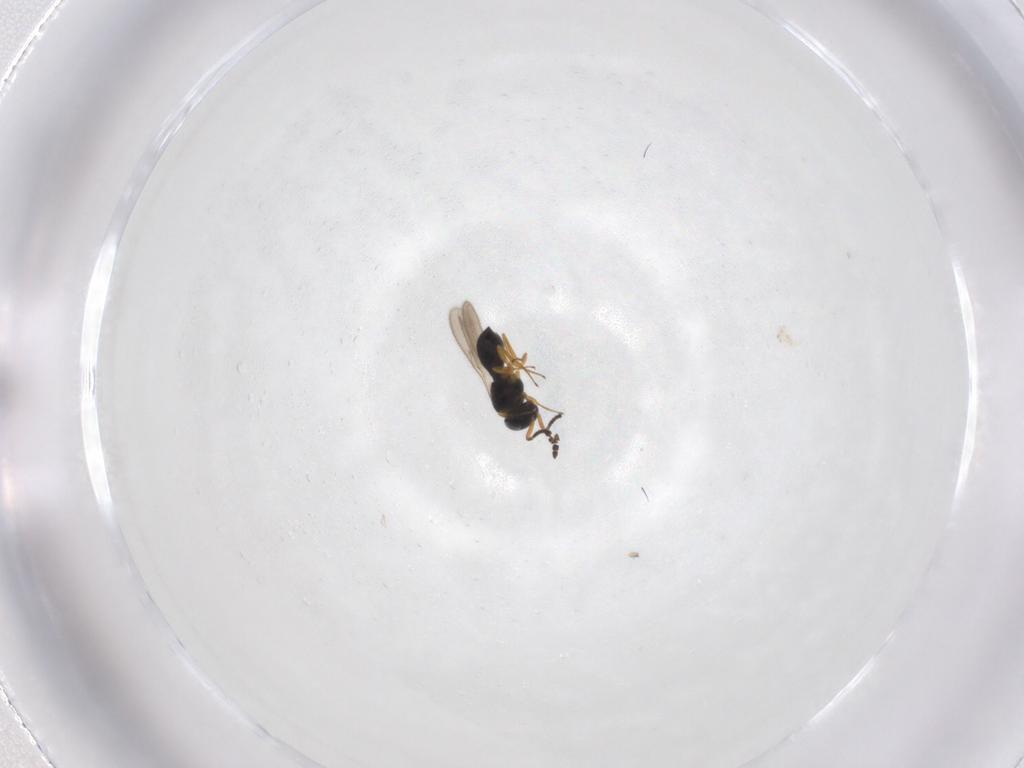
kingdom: Animalia
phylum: Arthropoda
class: Insecta
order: Hymenoptera
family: Scelionidae
